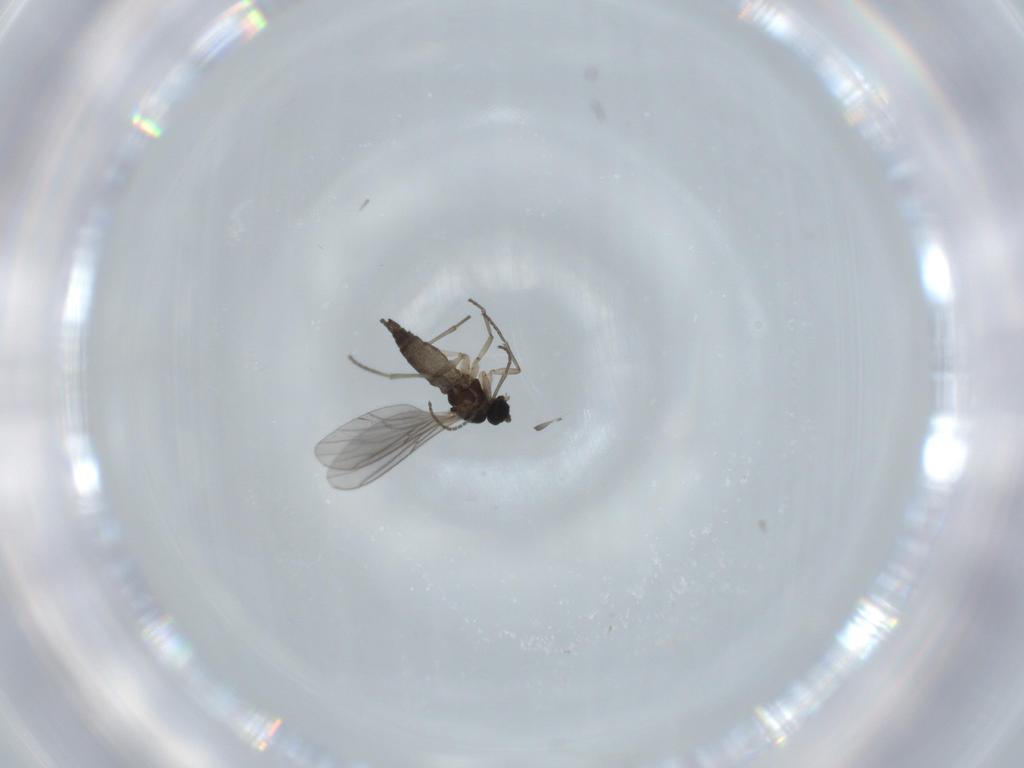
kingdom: Animalia
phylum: Arthropoda
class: Insecta
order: Diptera
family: Sciaridae
